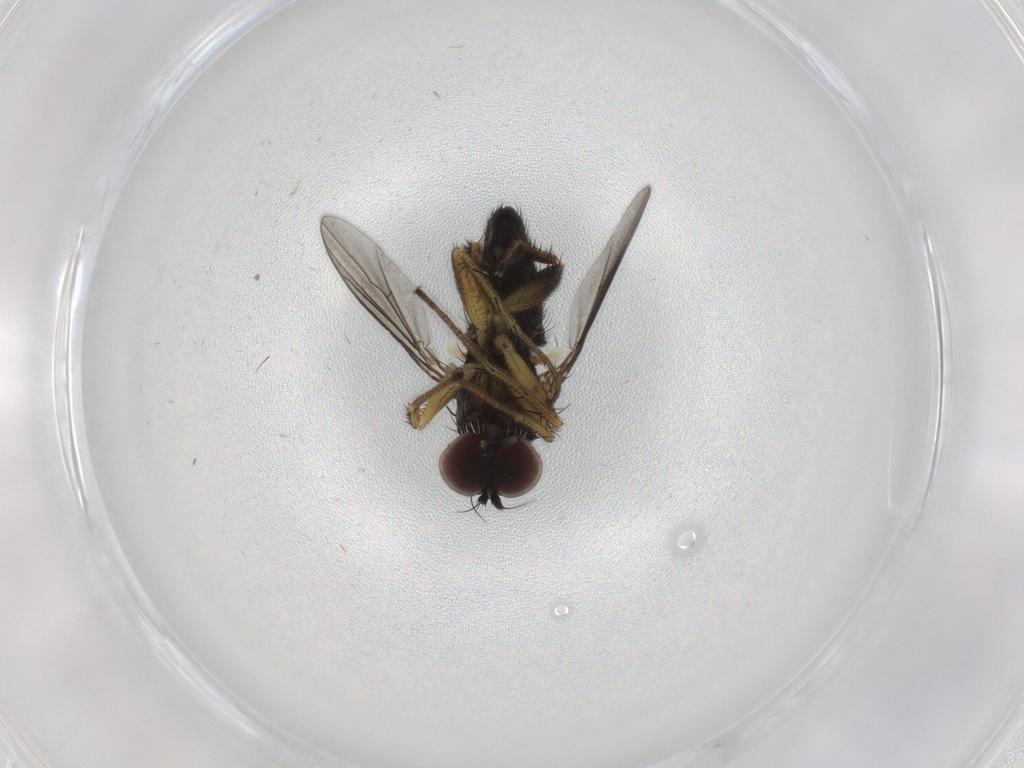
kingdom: Animalia
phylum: Arthropoda
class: Insecta
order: Diptera
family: Dolichopodidae
